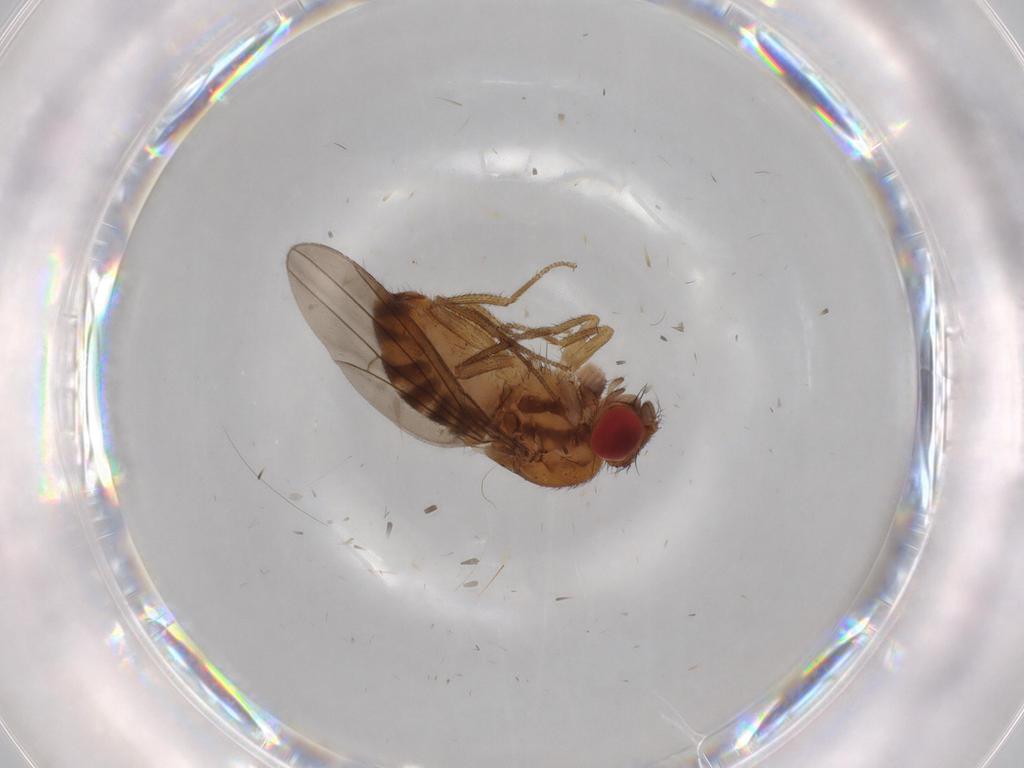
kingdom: Animalia
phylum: Arthropoda
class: Insecta
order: Diptera
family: Drosophilidae
